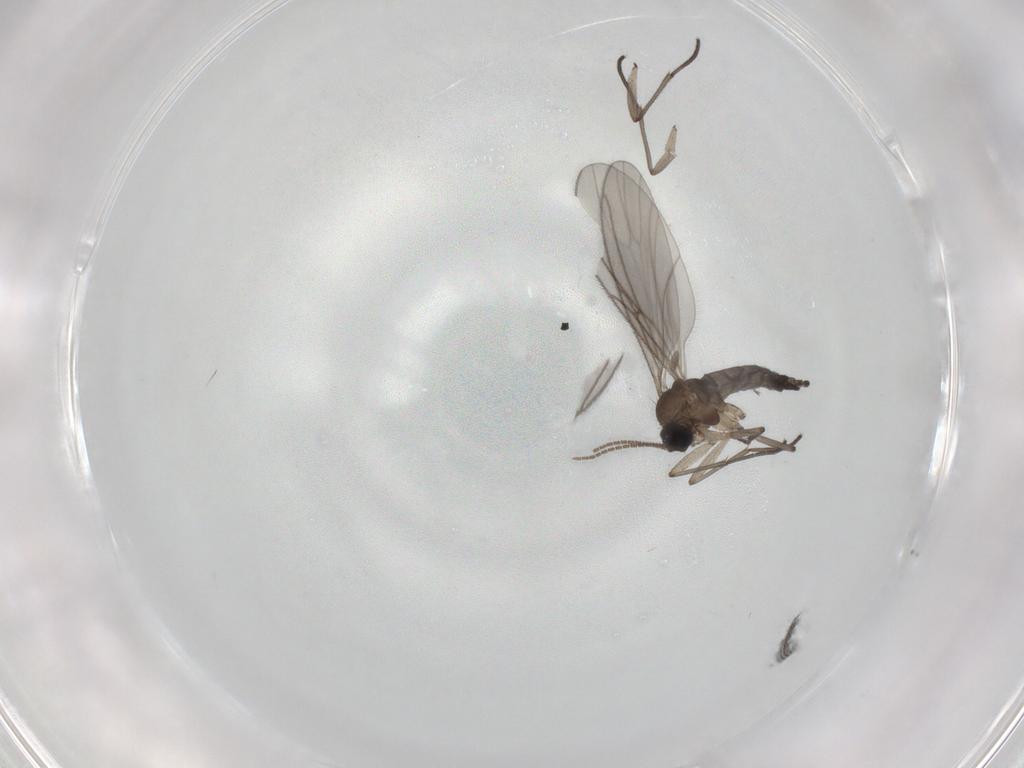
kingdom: Animalia
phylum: Arthropoda
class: Insecta
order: Diptera
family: Sciaridae
